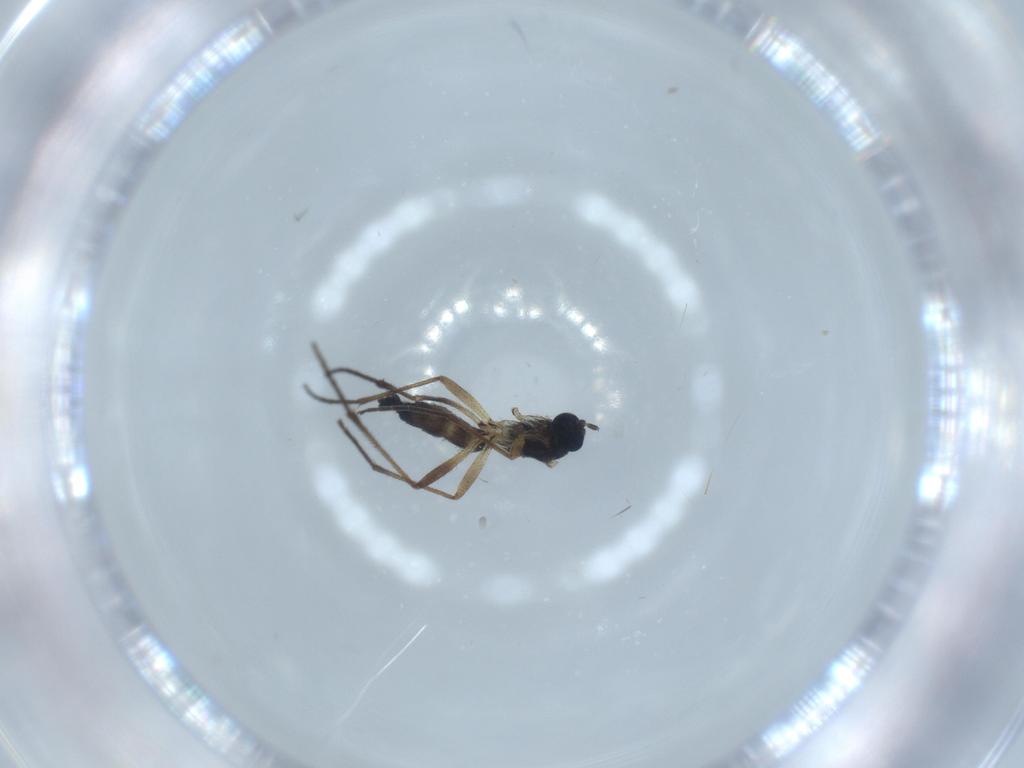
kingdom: Animalia
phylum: Arthropoda
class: Insecta
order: Diptera
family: Sciaridae
